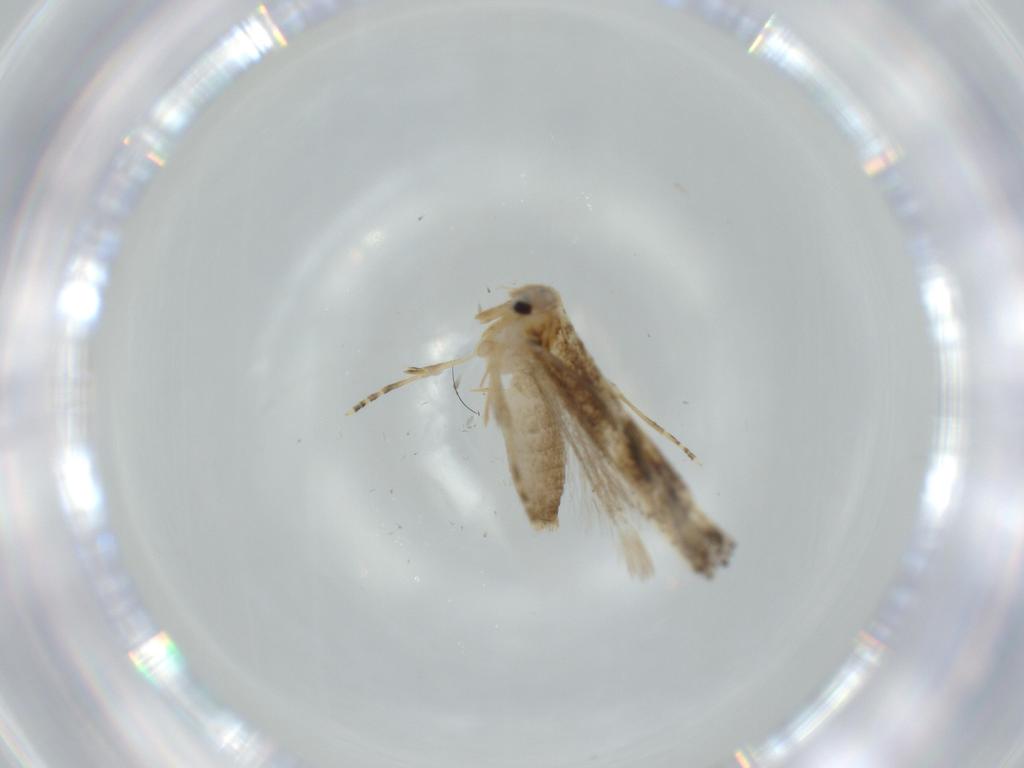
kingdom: Animalia
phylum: Arthropoda
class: Insecta
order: Lepidoptera
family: Bucculatricidae
